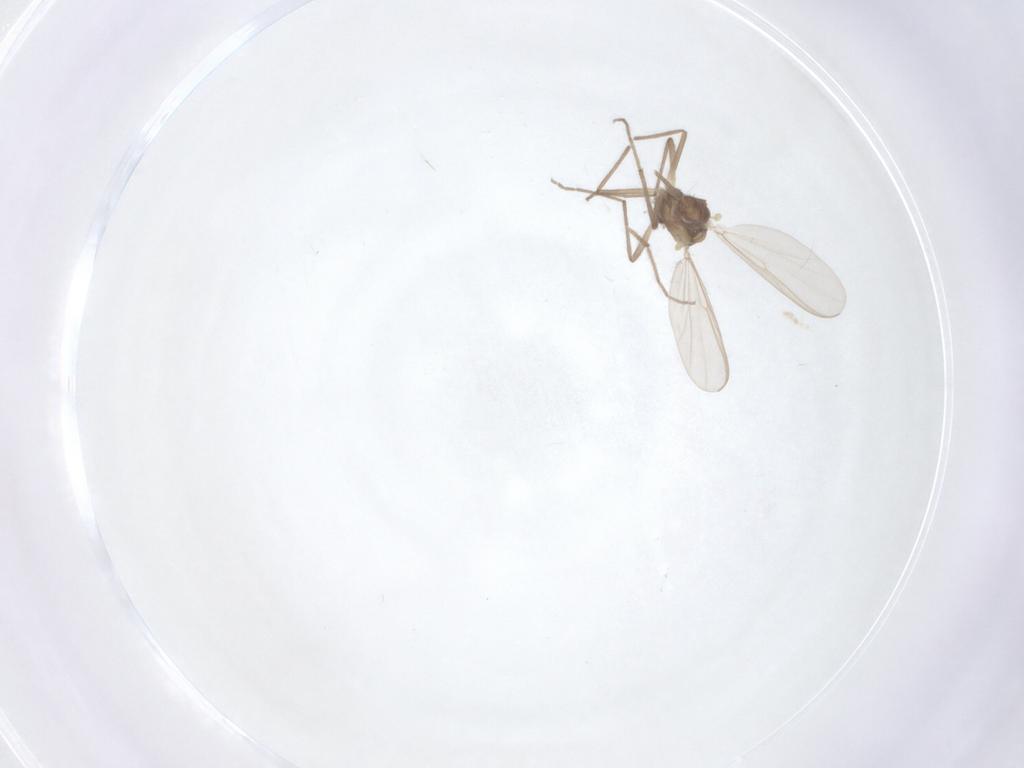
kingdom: Animalia
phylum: Arthropoda
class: Insecta
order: Diptera
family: Chironomidae
